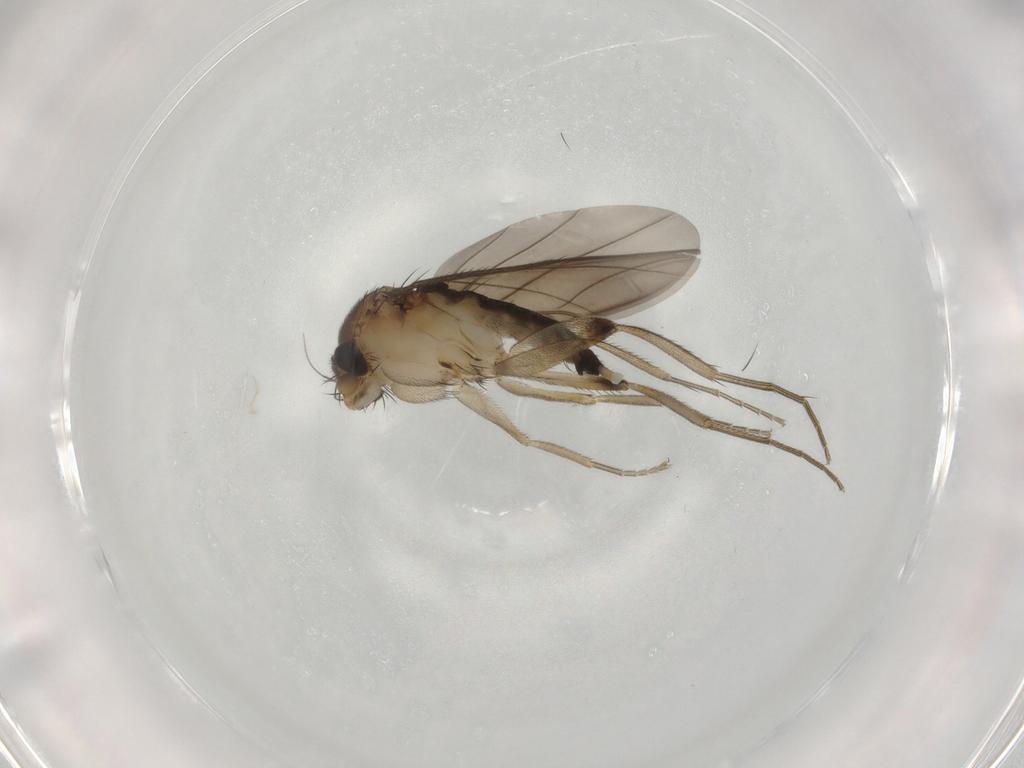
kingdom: Animalia
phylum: Arthropoda
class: Insecta
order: Diptera
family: Phoridae
